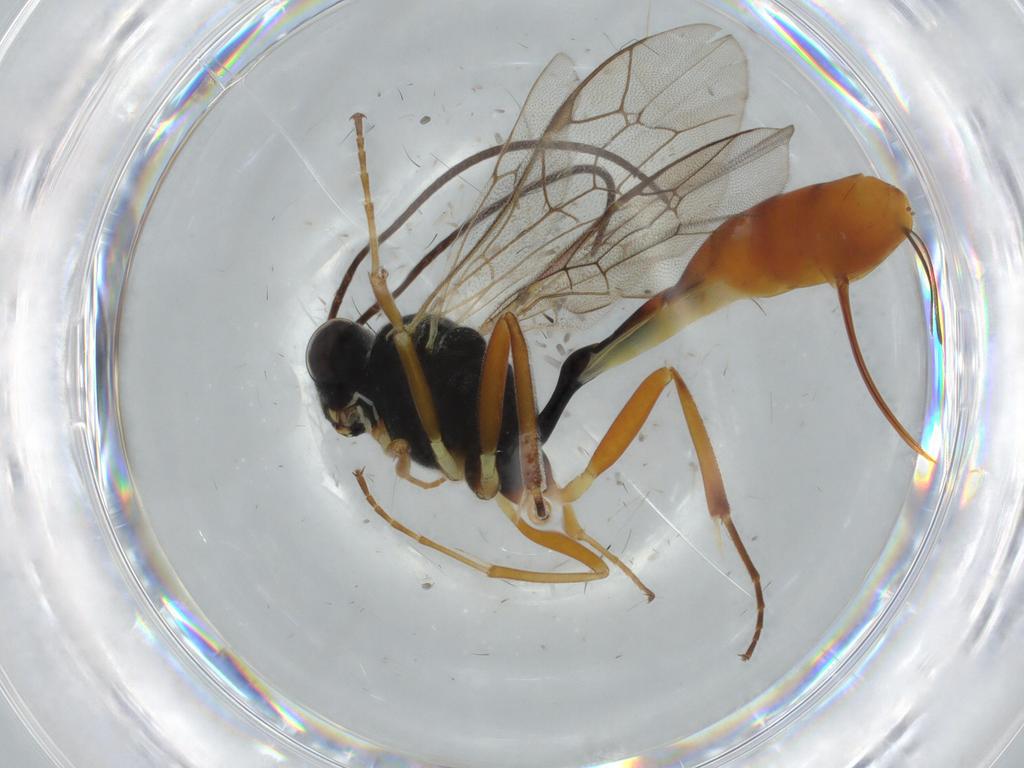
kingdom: Animalia
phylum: Arthropoda
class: Insecta
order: Hymenoptera
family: Ichneumonidae
